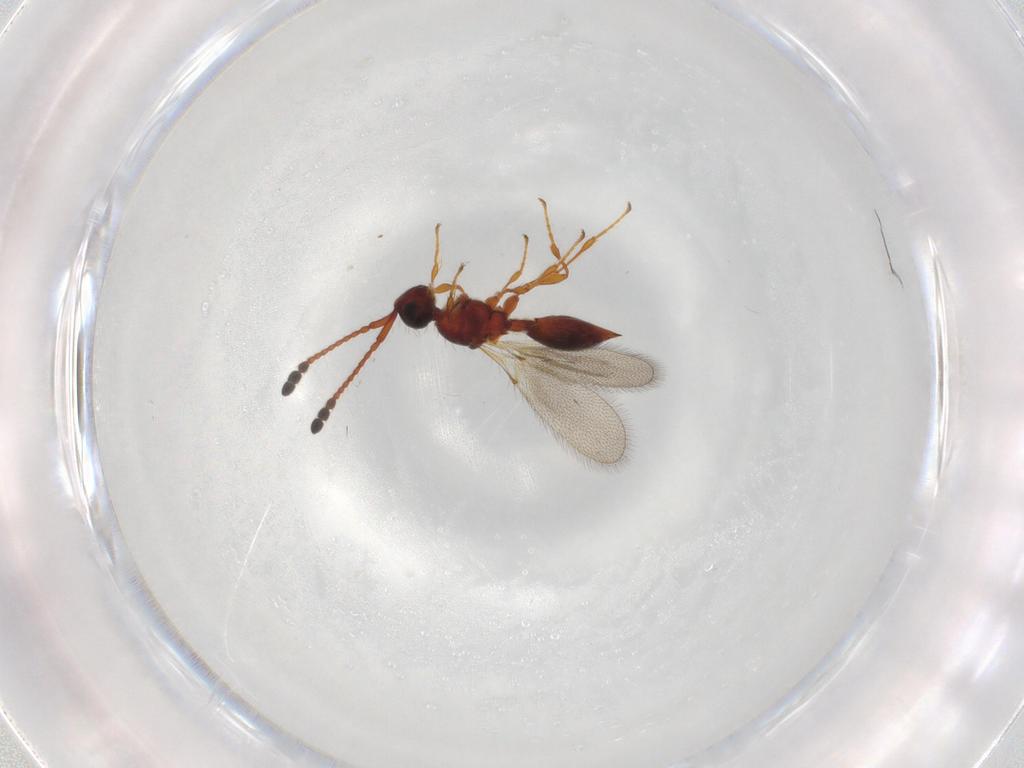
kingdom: Animalia
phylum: Arthropoda
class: Insecta
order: Hymenoptera
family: Diapriidae
